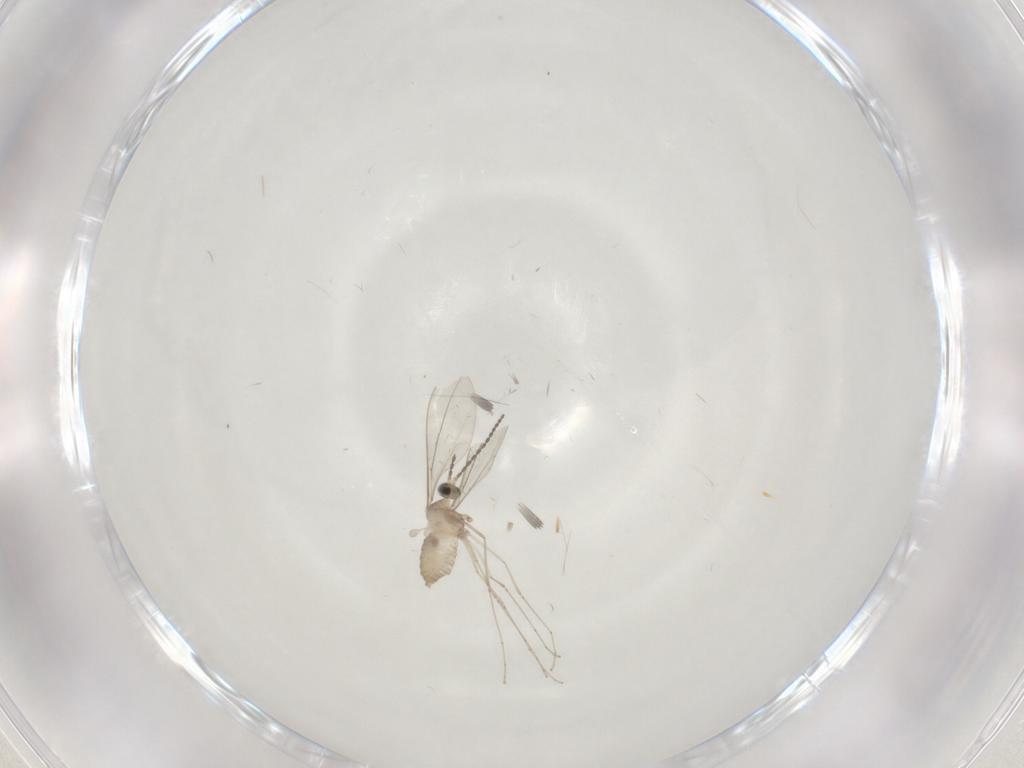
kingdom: Animalia
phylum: Arthropoda
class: Insecta
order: Diptera
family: Cecidomyiidae
